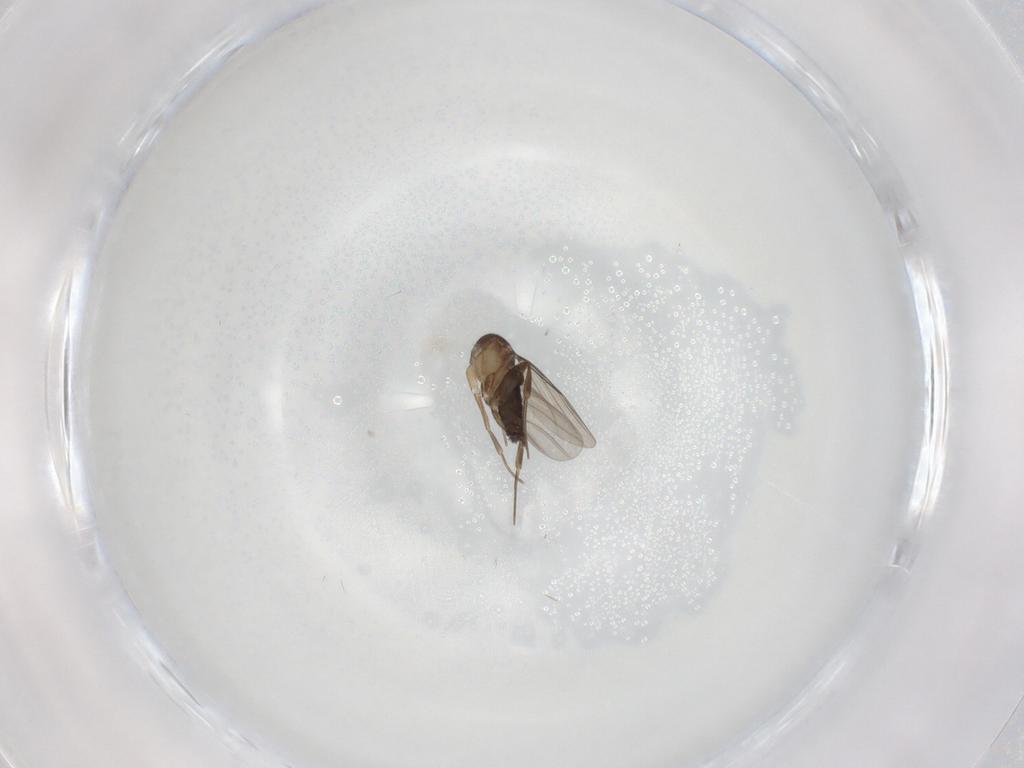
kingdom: Animalia
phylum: Arthropoda
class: Insecta
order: Diptera
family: Phoridae
